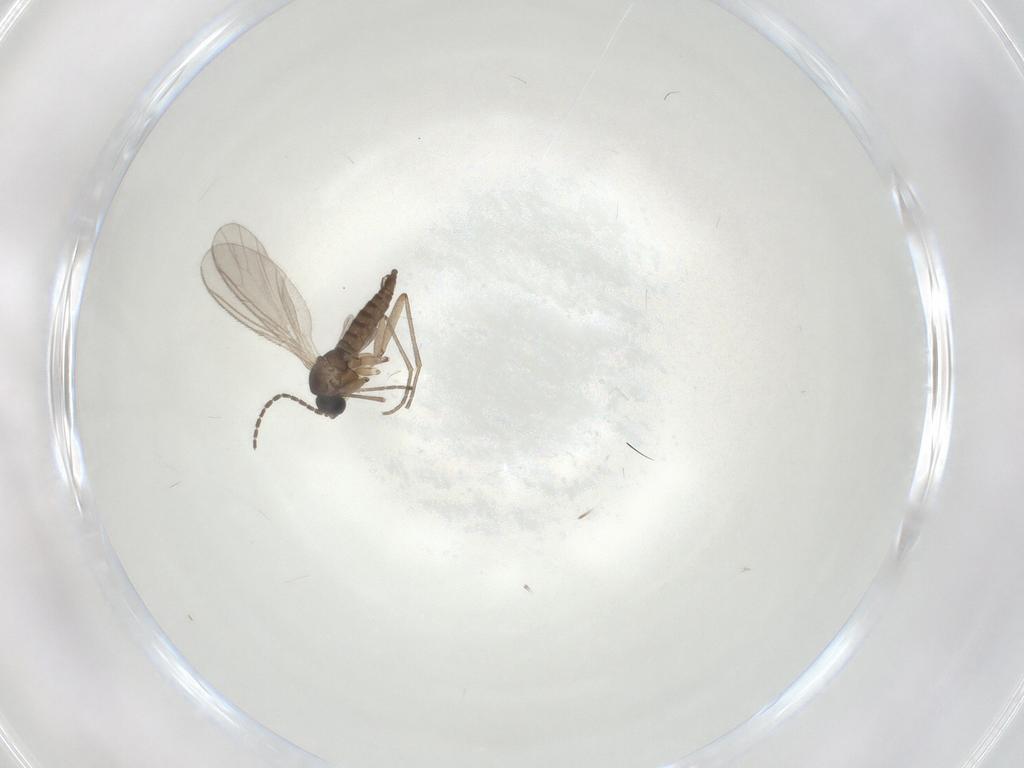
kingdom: Animalia
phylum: Arthropoda
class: Insecta
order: Diptera
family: Sciaridae
